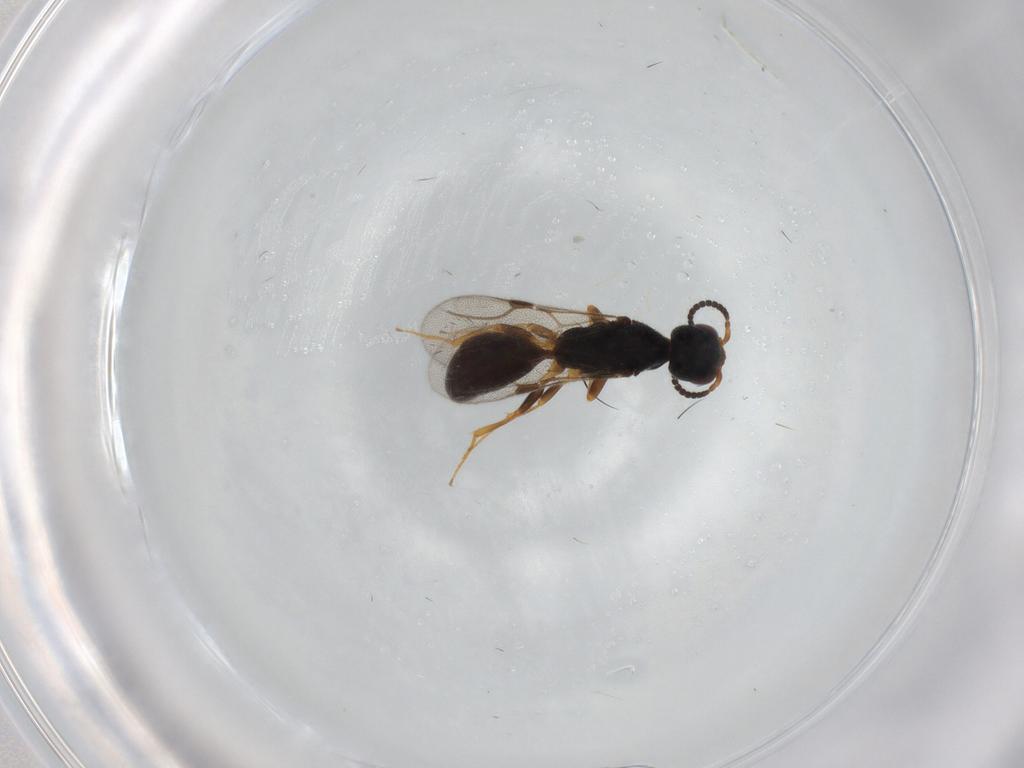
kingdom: Animalia
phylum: Arthropoda
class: Insecta
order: Hymenoptera
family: Bethylidae
